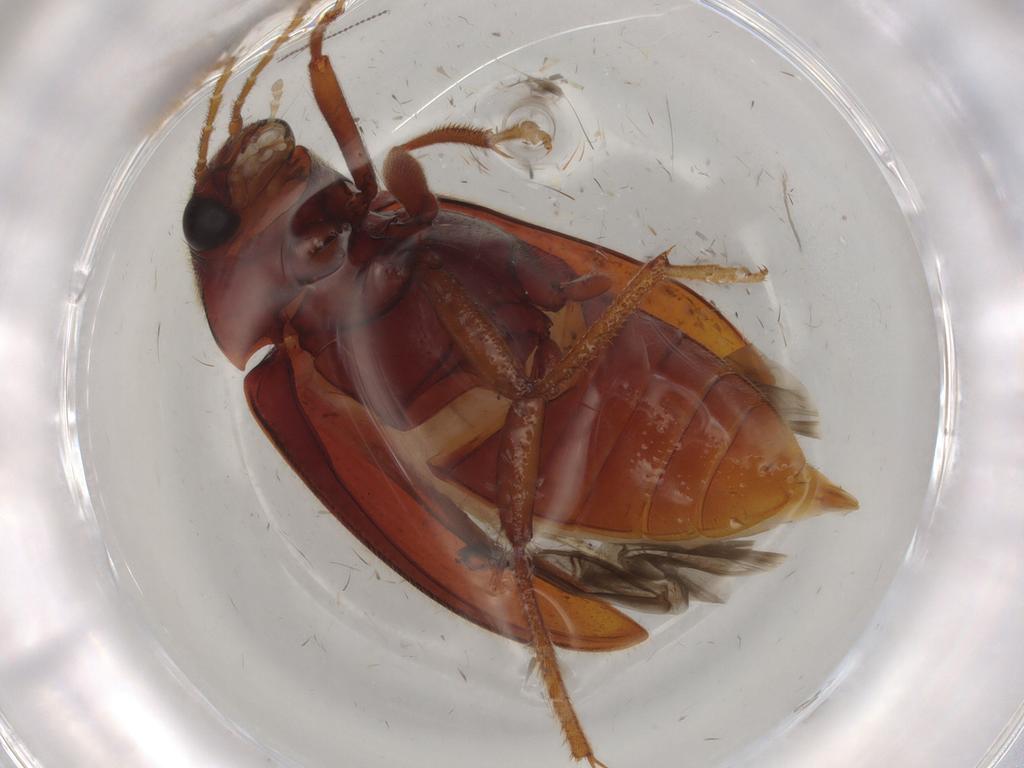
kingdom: Animalia
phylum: Arthropoda
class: Insecta
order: Coleoptera
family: Ptilodactylidae
